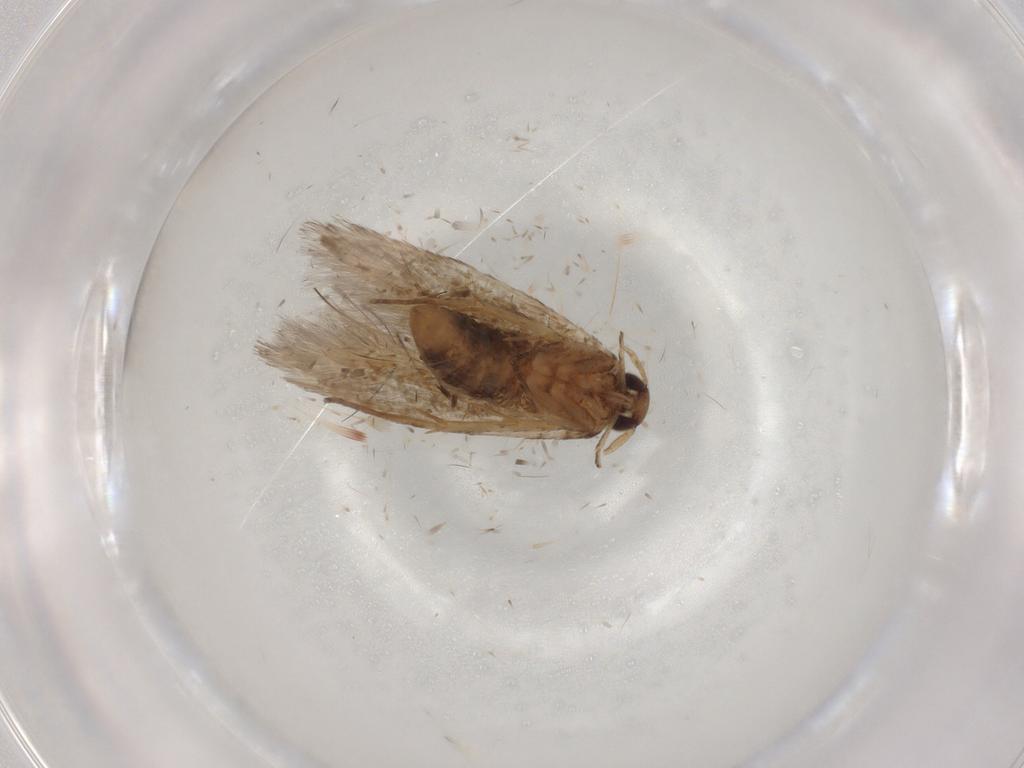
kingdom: Animalia
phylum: Arthropoda
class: Insecta
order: Lepidoptera
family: Cosmopterigidae
